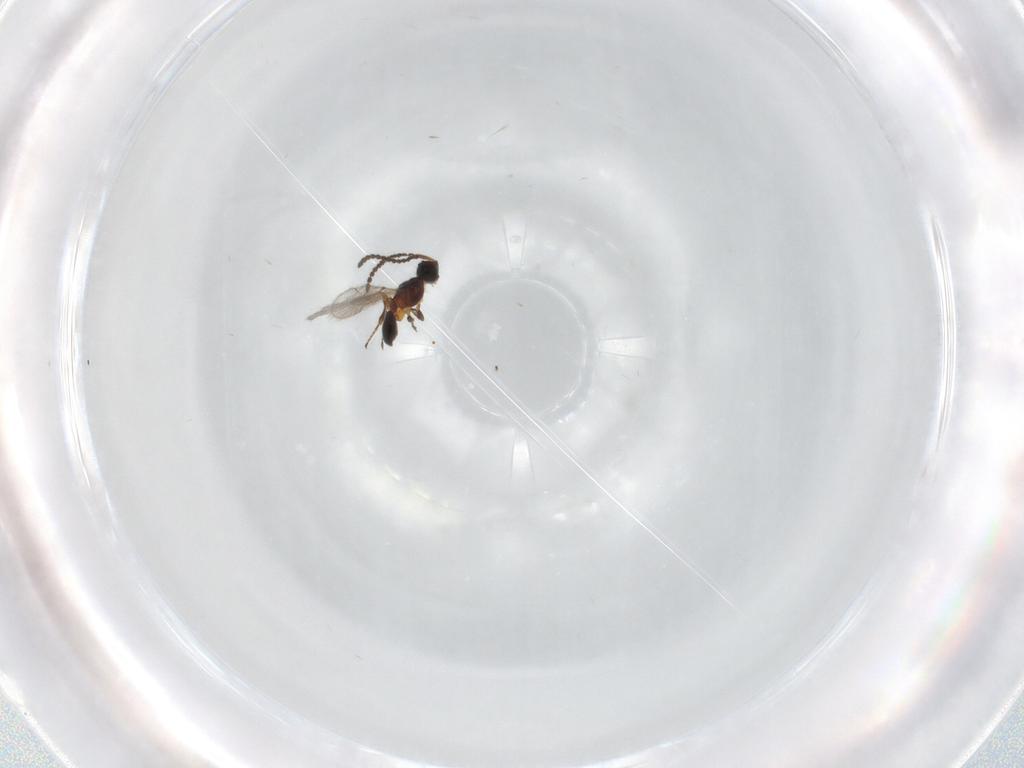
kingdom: Animalia
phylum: Arthropoda
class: Insecta
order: Hymenoptera
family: Diapriidae
